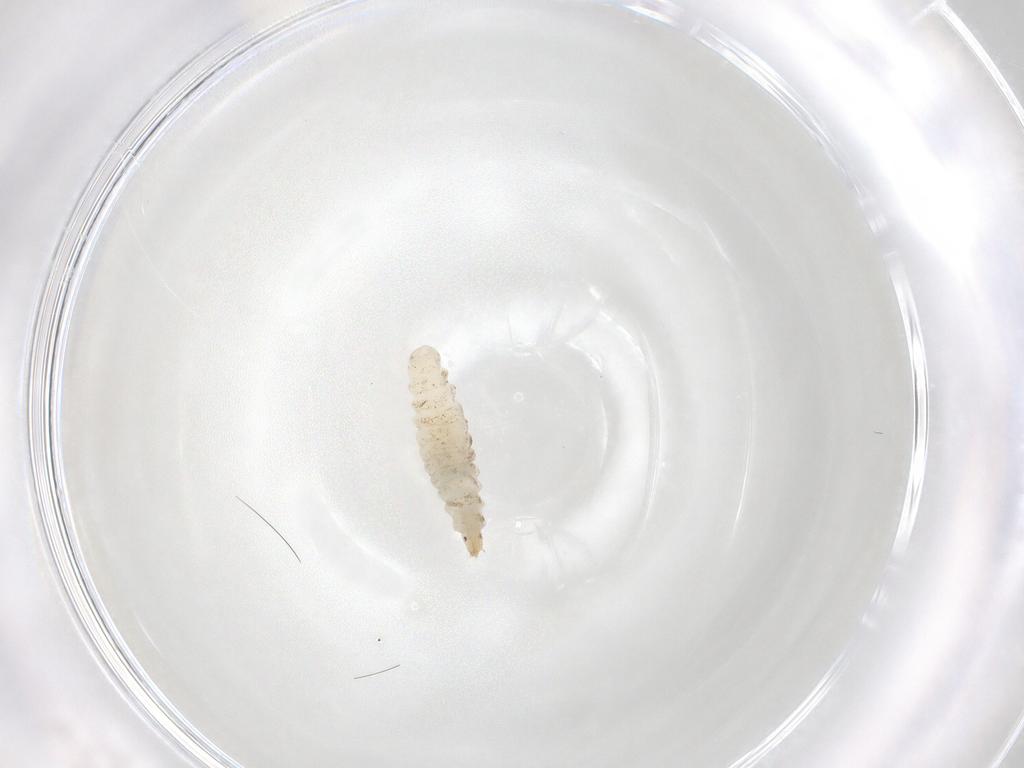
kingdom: Animalia
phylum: Arthropoda
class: Insecta
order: Diptera
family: Stratiomyidae
